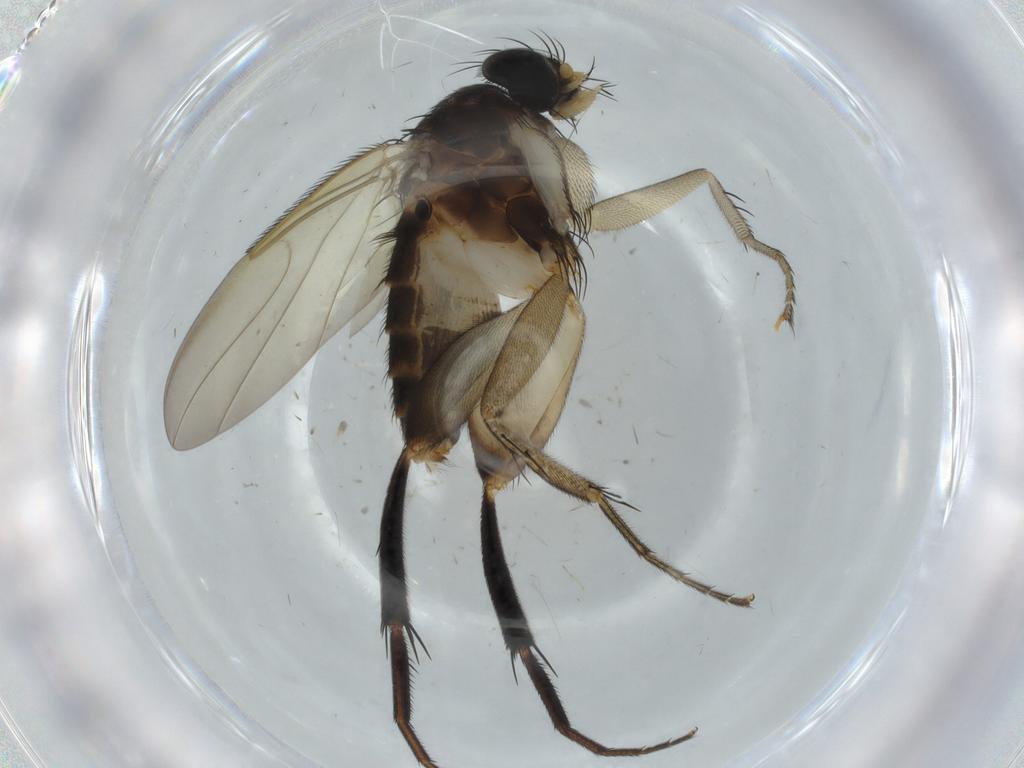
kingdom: Animalia
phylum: Arthropoda
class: Insecta
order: Diptera
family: Phoridae
